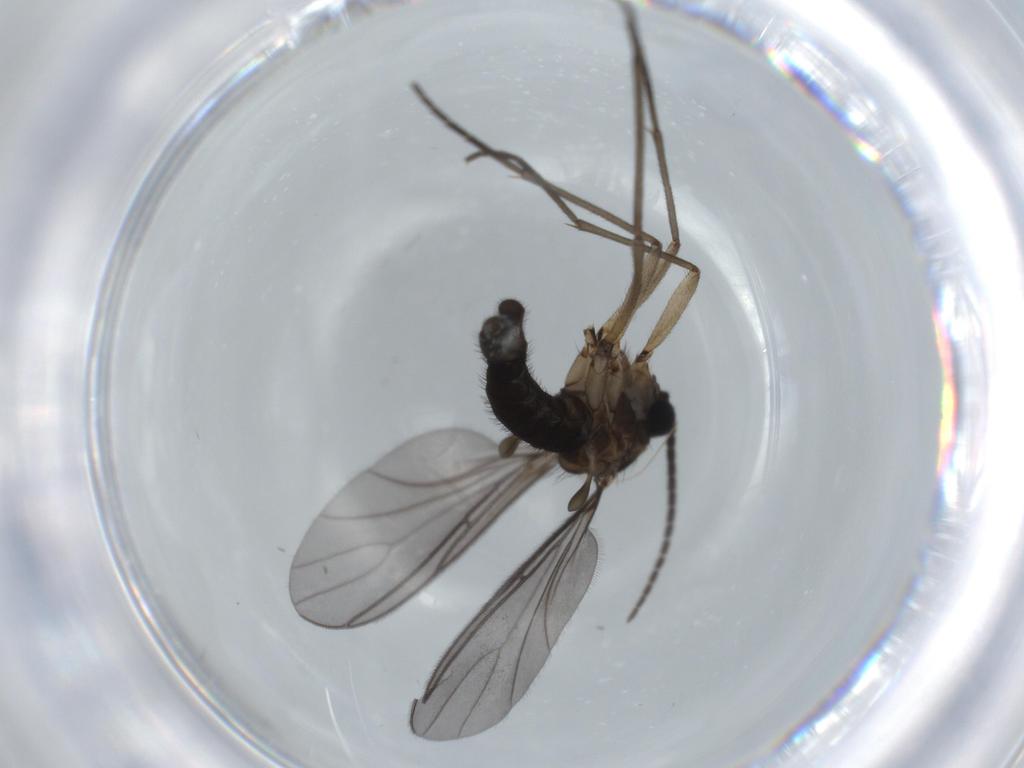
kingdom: Animalia
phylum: Arthropoda
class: Insecta
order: Diptera
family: Sciaridae
